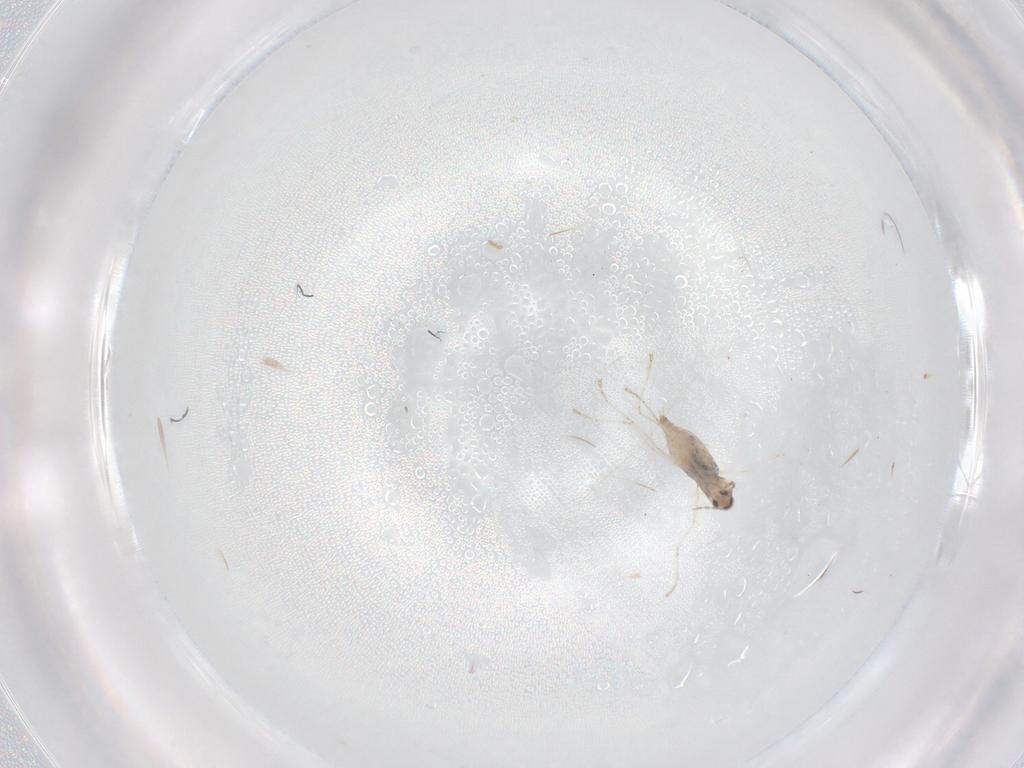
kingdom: Animalia
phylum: Arthropoda
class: Insecta
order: Diptera
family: Cecidomyiidae
